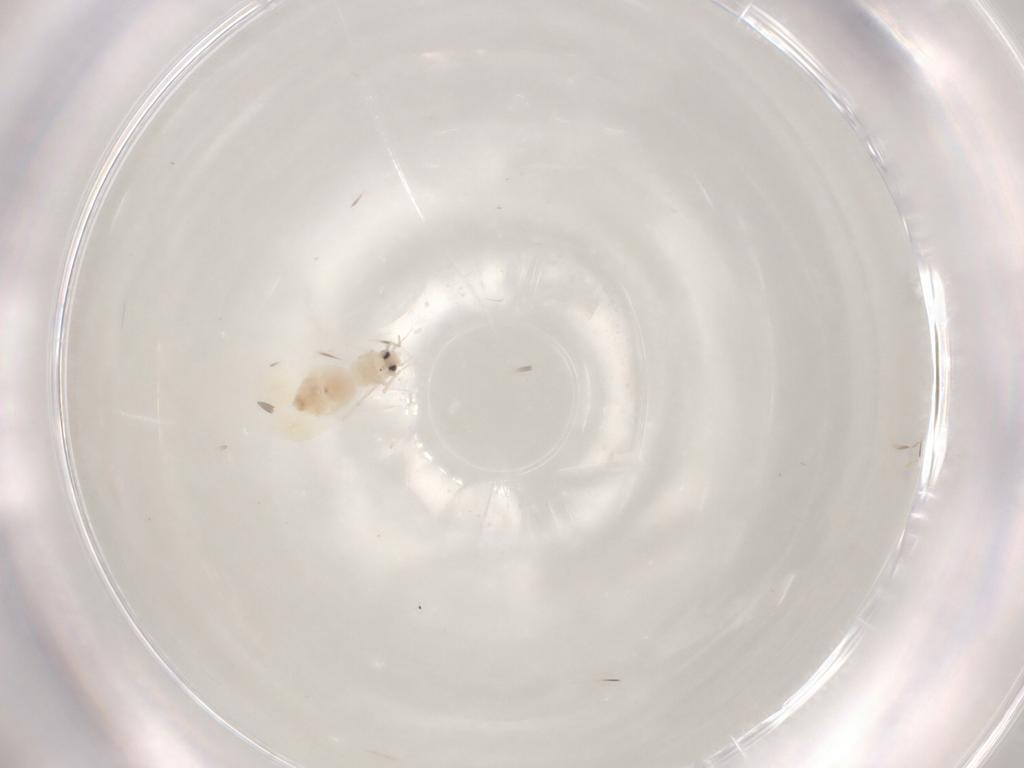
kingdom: Animalia
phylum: Arthropoda
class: Insecta
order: Hemiptera
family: Aleyrodidae
